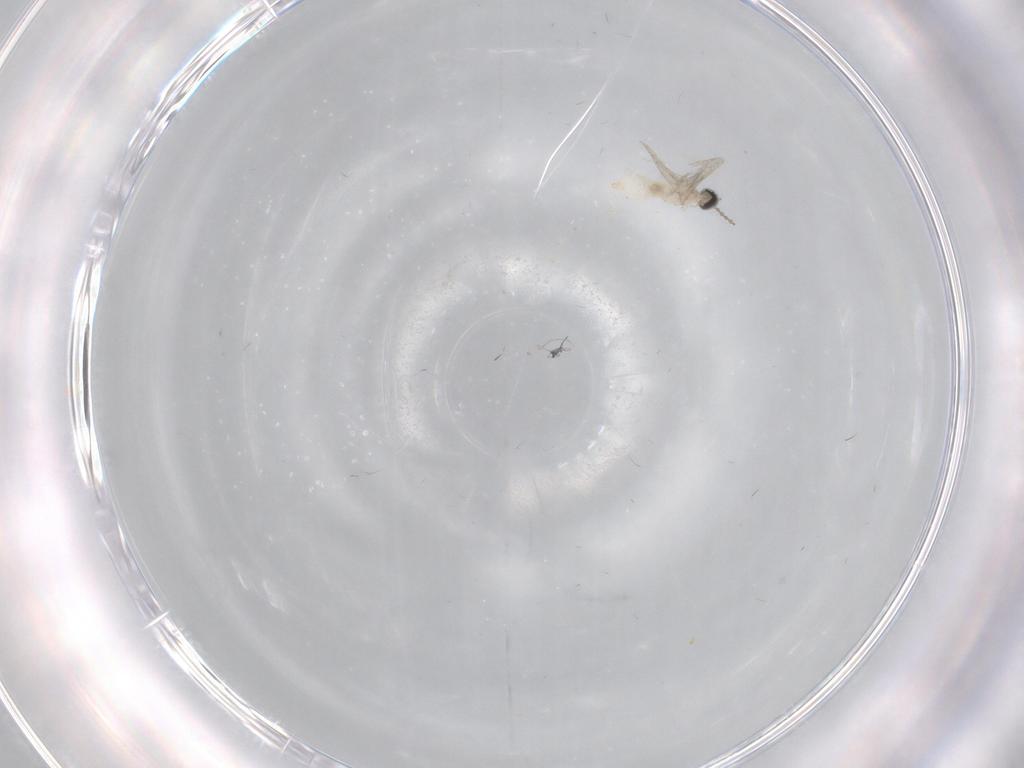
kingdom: Animalia
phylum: Arthropoda
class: Insecta
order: Diptera
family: Cecidomyiidae
